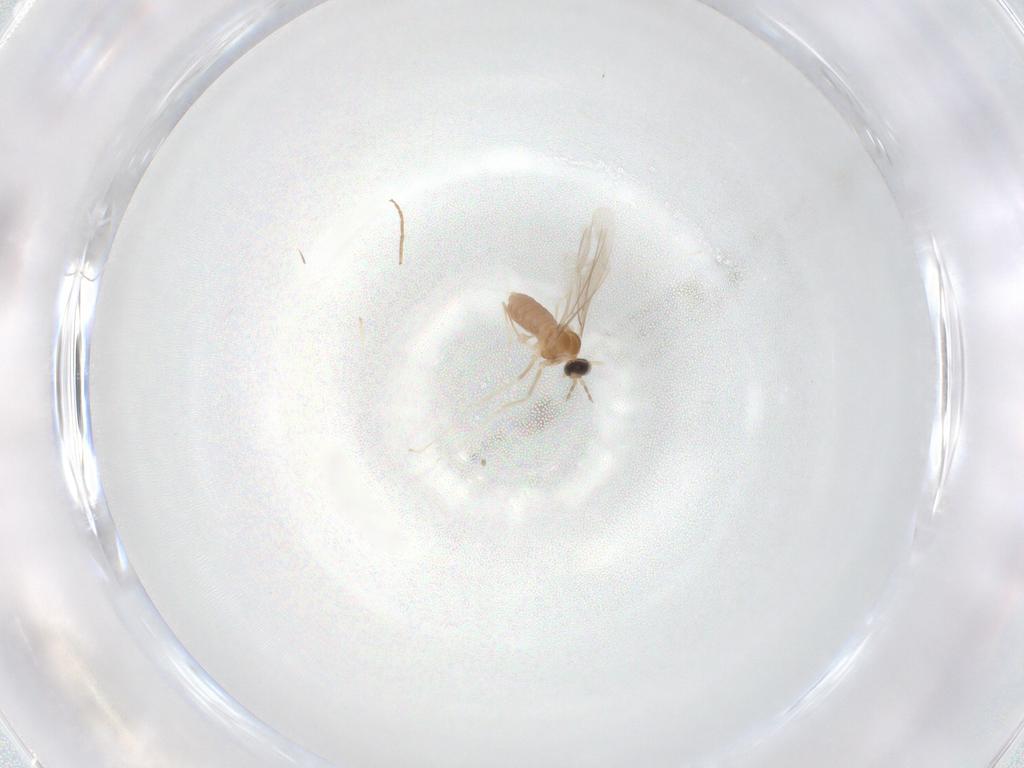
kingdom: Animalia
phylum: Arthropoda
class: Insecta
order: Diptera
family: Cecidomyiidae
